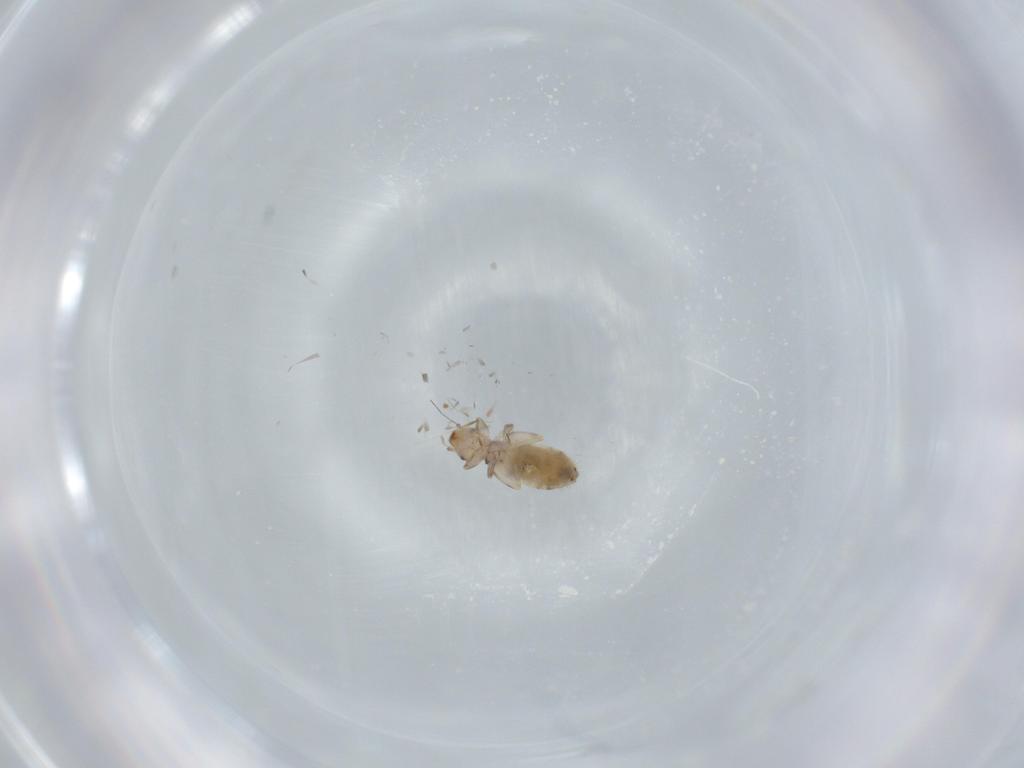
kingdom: Animalia
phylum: Arthropoda
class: Insecta
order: Psocodea
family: Liposcelididae
